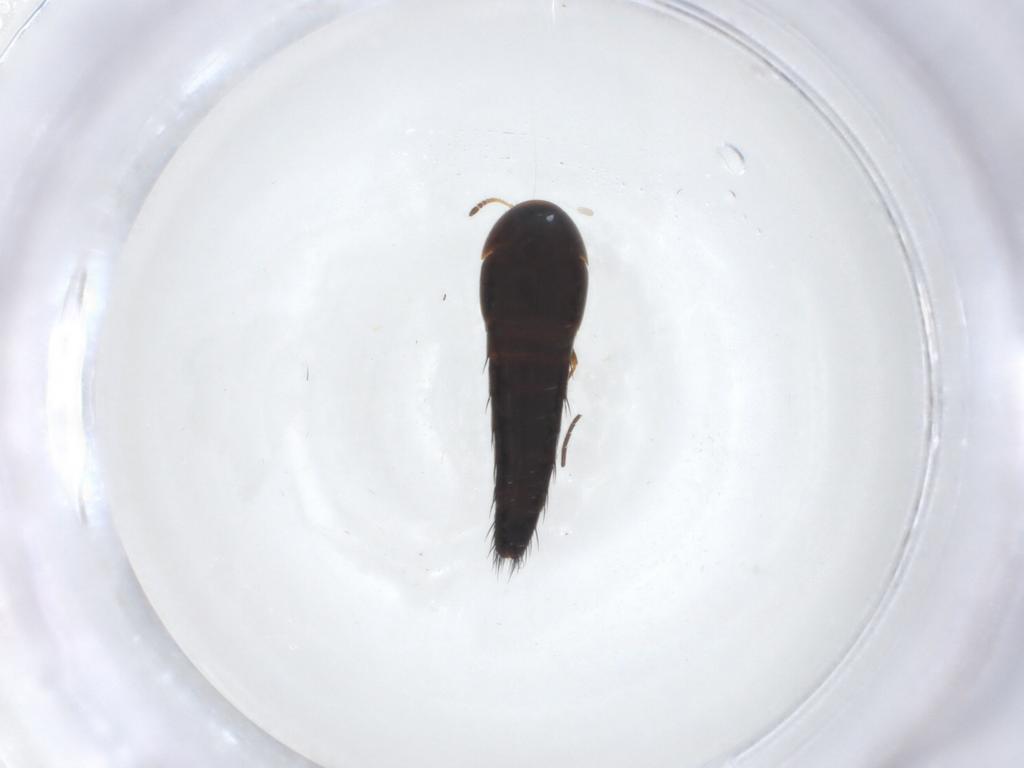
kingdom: Animalia
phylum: Arthropoda
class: Insecta
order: Coleoptera
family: Staphylinidae
